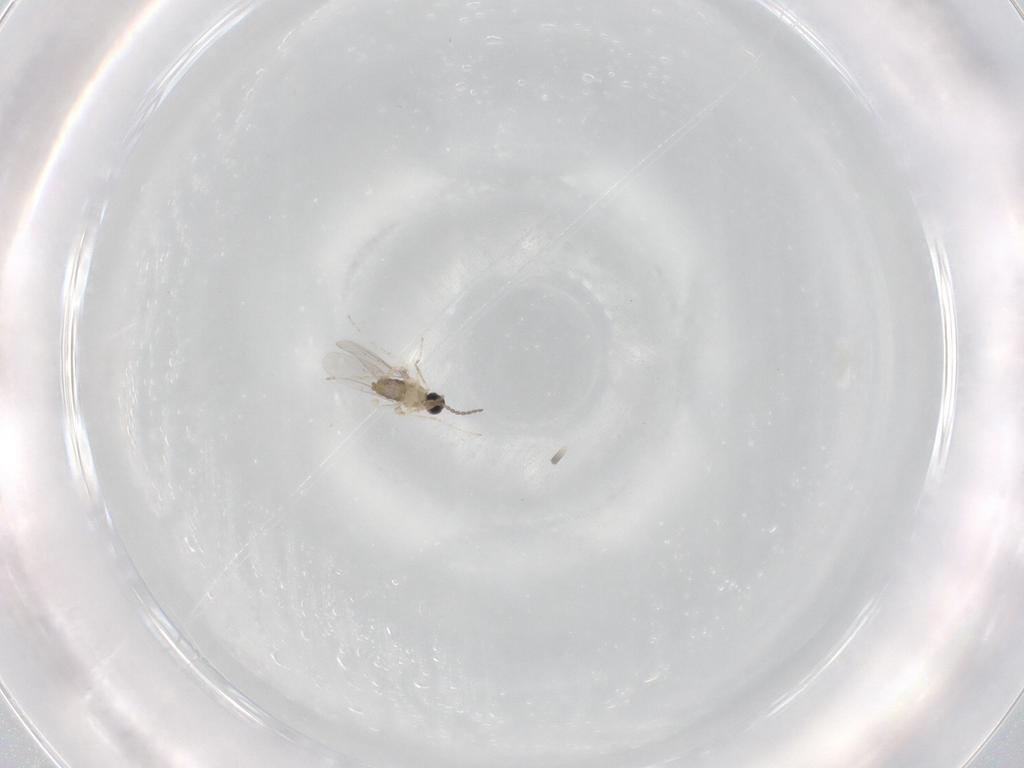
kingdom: Animalia
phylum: Arthropoda
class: Insecta
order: Diptera
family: Cecidomyiidae
